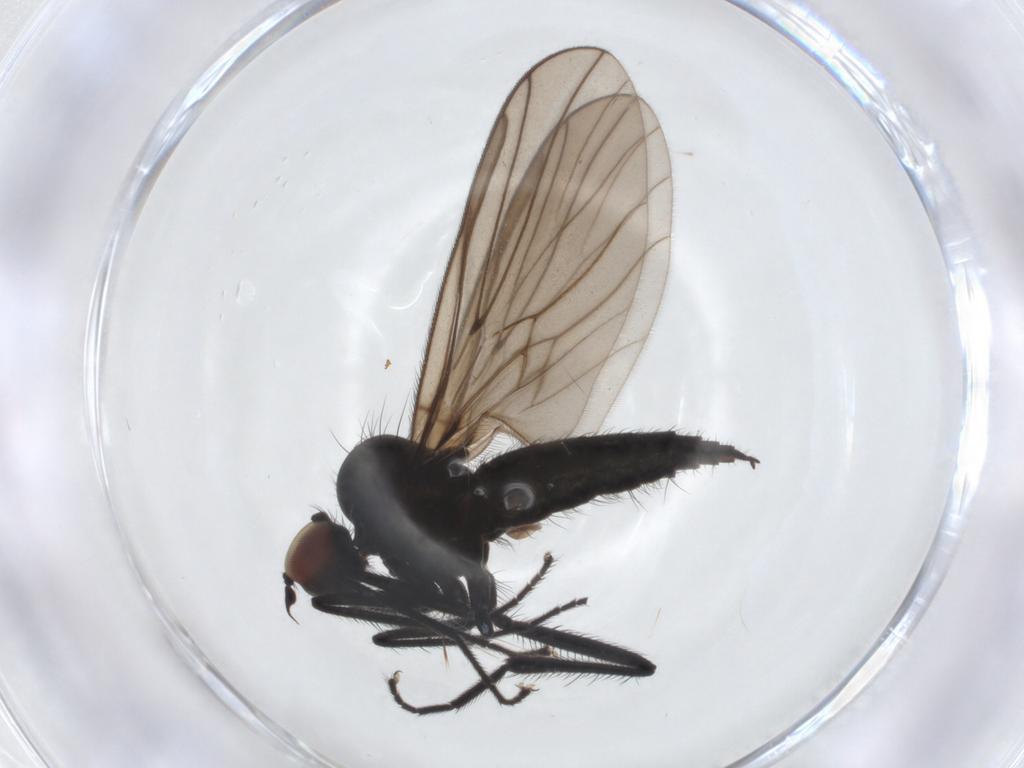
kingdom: Animalia
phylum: Arthropoda
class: Insecta
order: Diptera
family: Hybotidae
